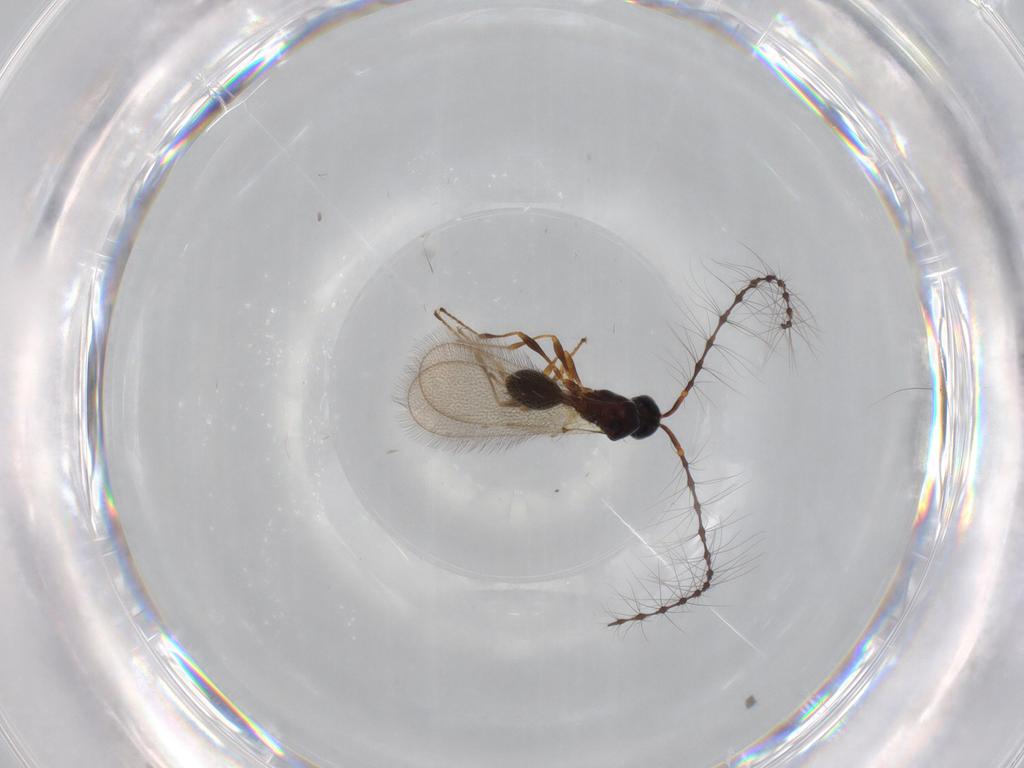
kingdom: Animalia
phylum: Arthropoda
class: Insecta
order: Hymenoptera
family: Diapriidae
